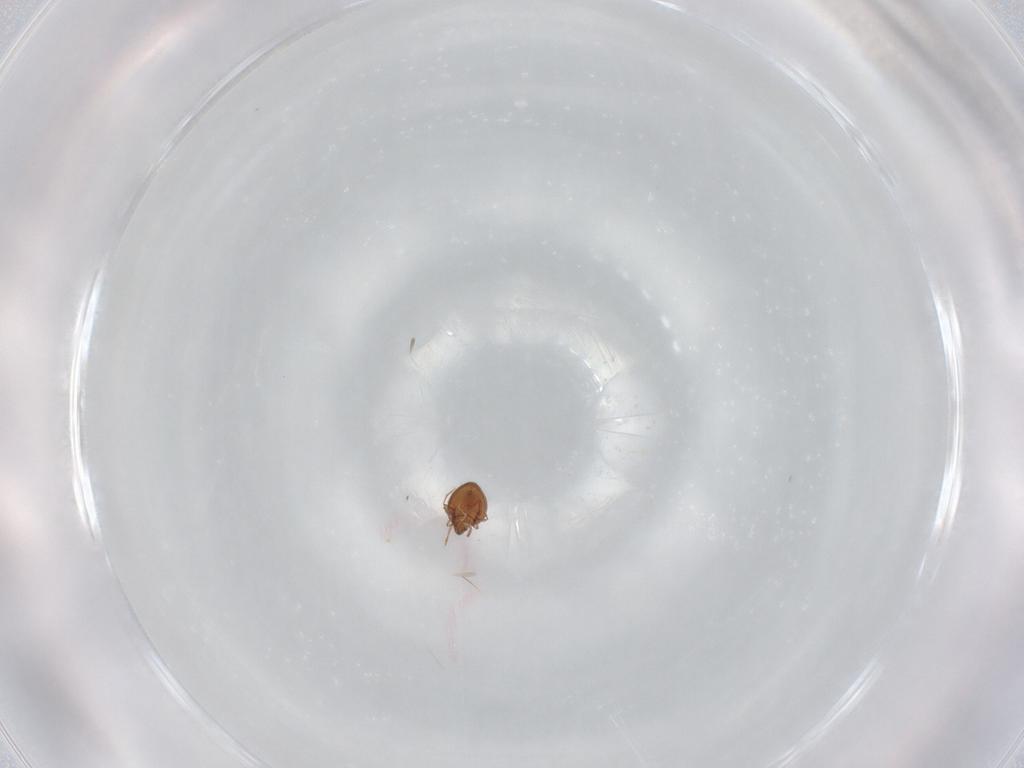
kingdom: Animalia
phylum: Arthropoda
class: Arachnida
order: Sarcoptiformes
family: Oribatulidae
